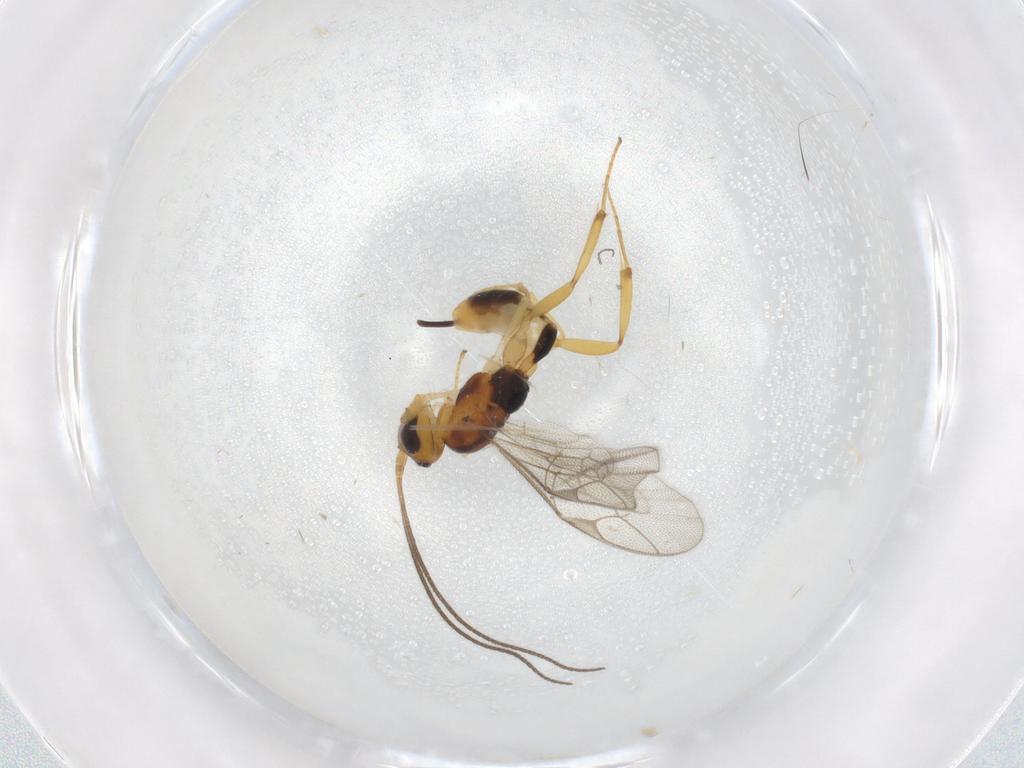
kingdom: Animalia
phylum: Arthropoda
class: Insecta
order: Hymenoptera
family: Ichneumonidae
